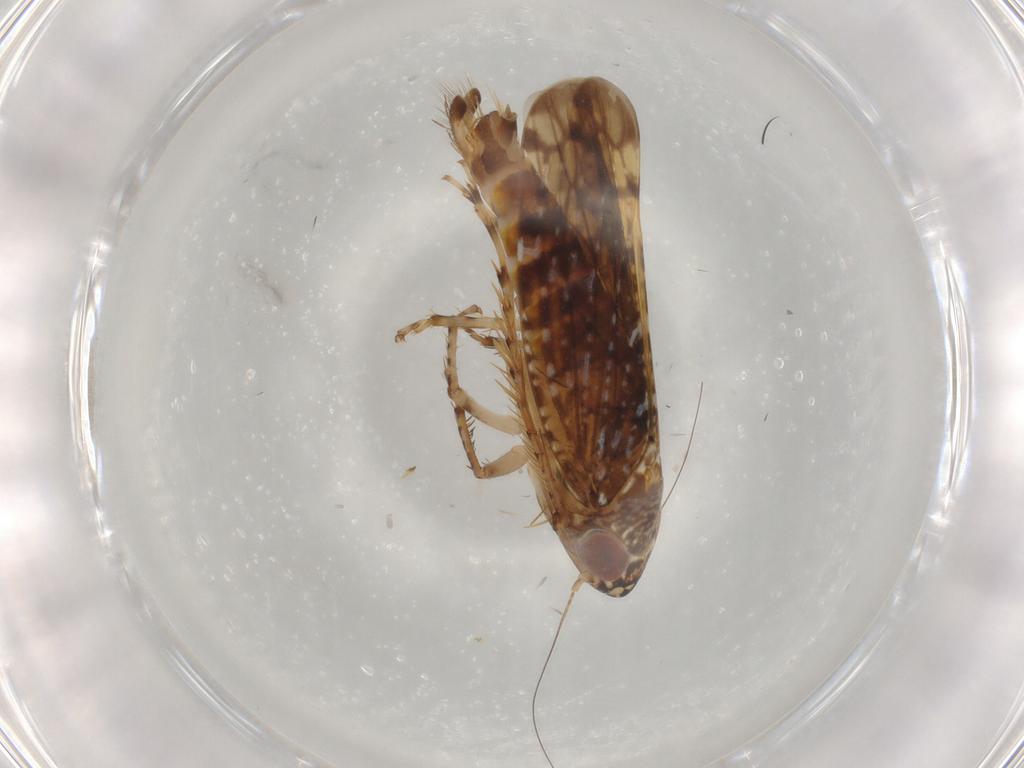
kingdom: Animalia
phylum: Arthropoda
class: Insecta
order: Hemiptera
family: Cicadellidae
